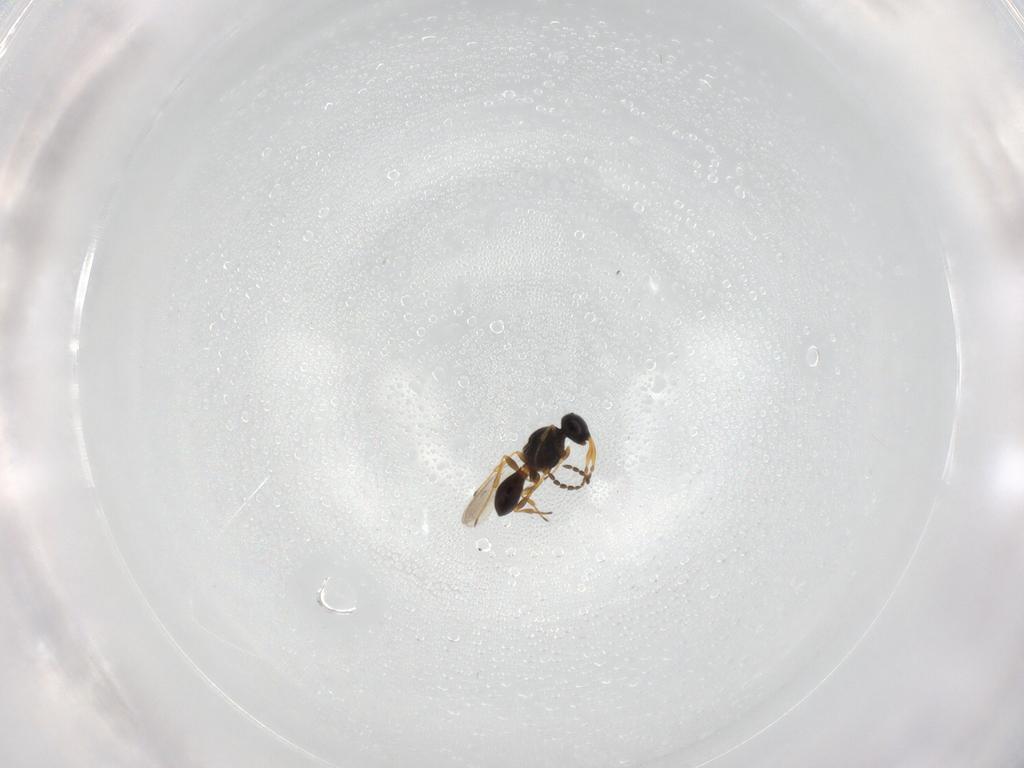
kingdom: Animalia
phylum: Arthropoda
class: Insecta
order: Hymenoptera
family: Platygastridae
